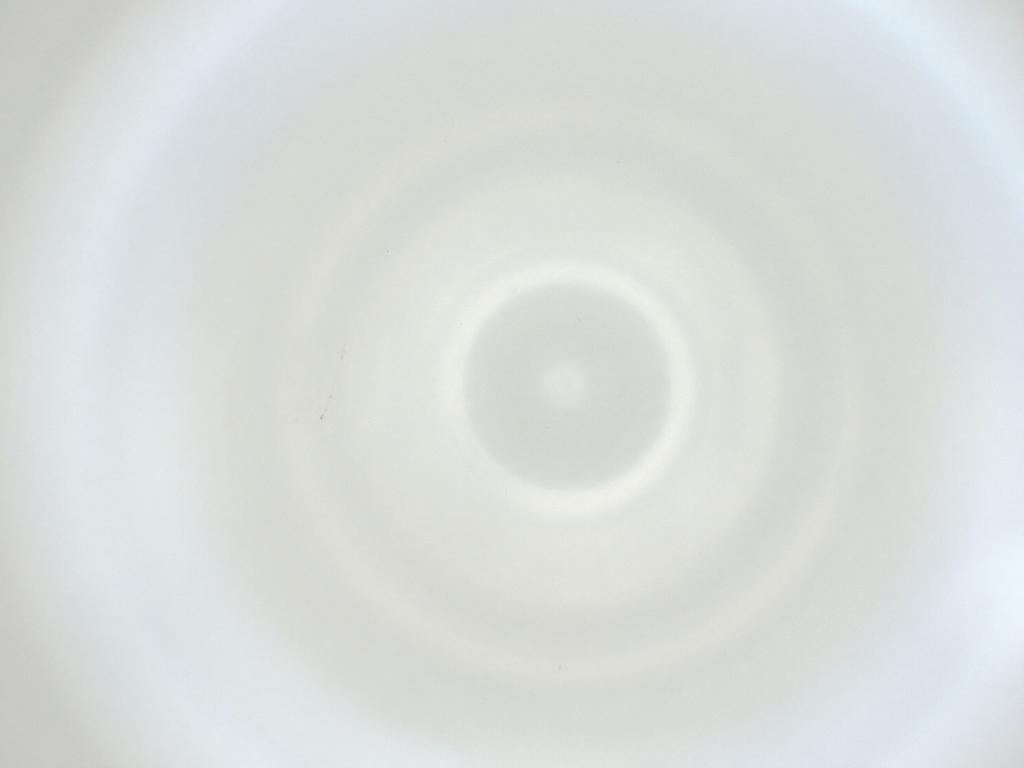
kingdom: Animalia
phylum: Arthropoda
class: Insecta
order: Diptera
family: Cecidomyiidae
